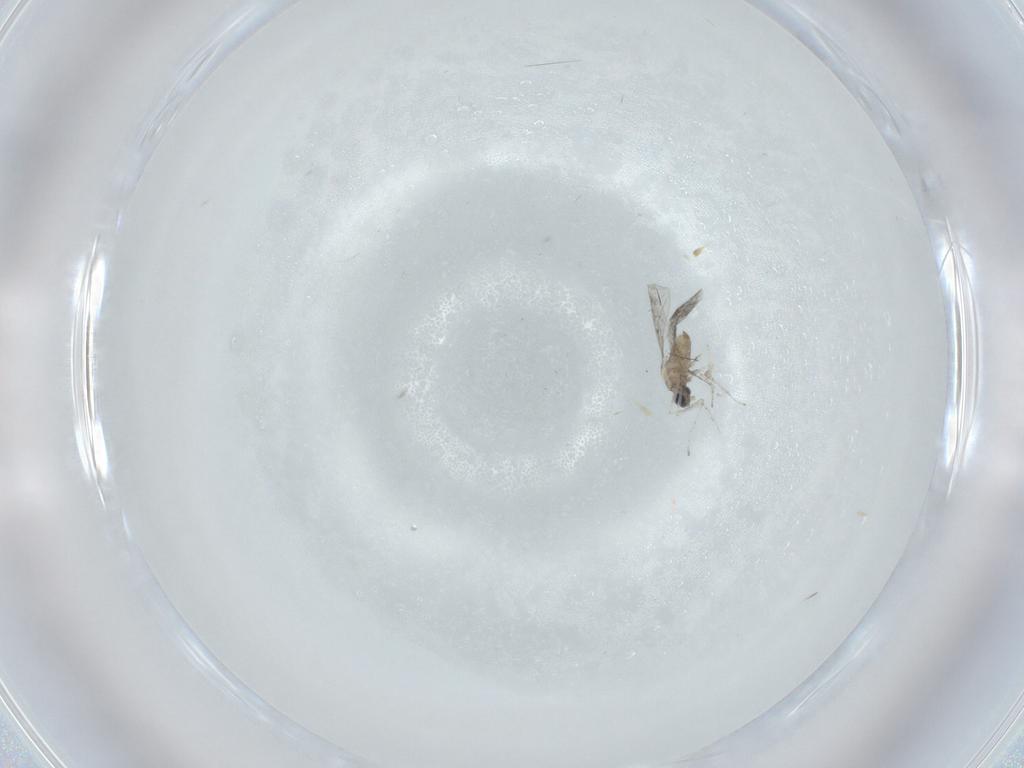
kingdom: Animalia
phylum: Arthropoda
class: Insecta
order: Diptera
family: Cecidomyiidae
